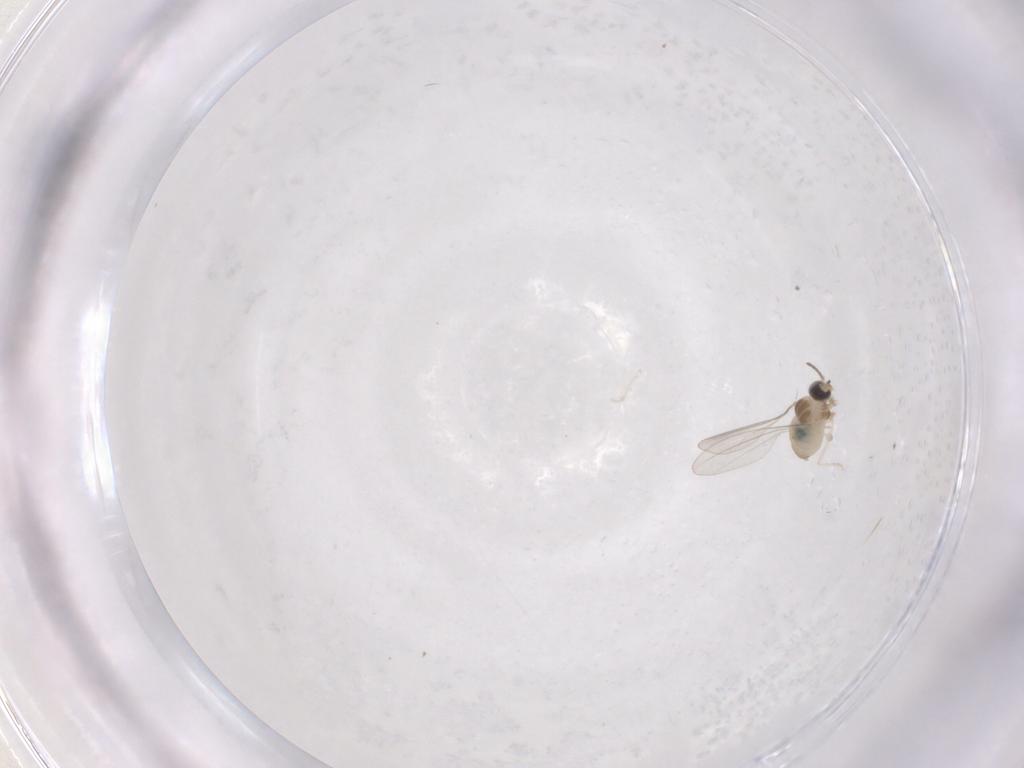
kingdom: Animalia
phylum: Arthropoda
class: Insecta
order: Diptera
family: Cecidomyiidae
